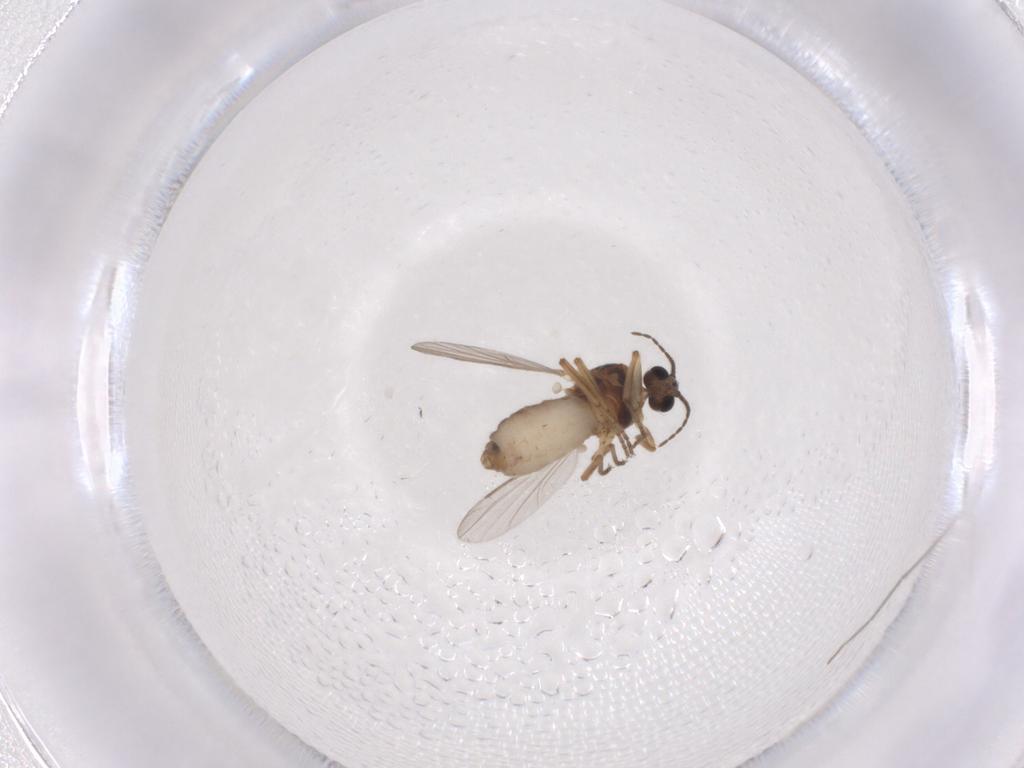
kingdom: Animalia
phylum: Arthropoda
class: Insecta
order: Diptera
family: Ceratopogonidae
